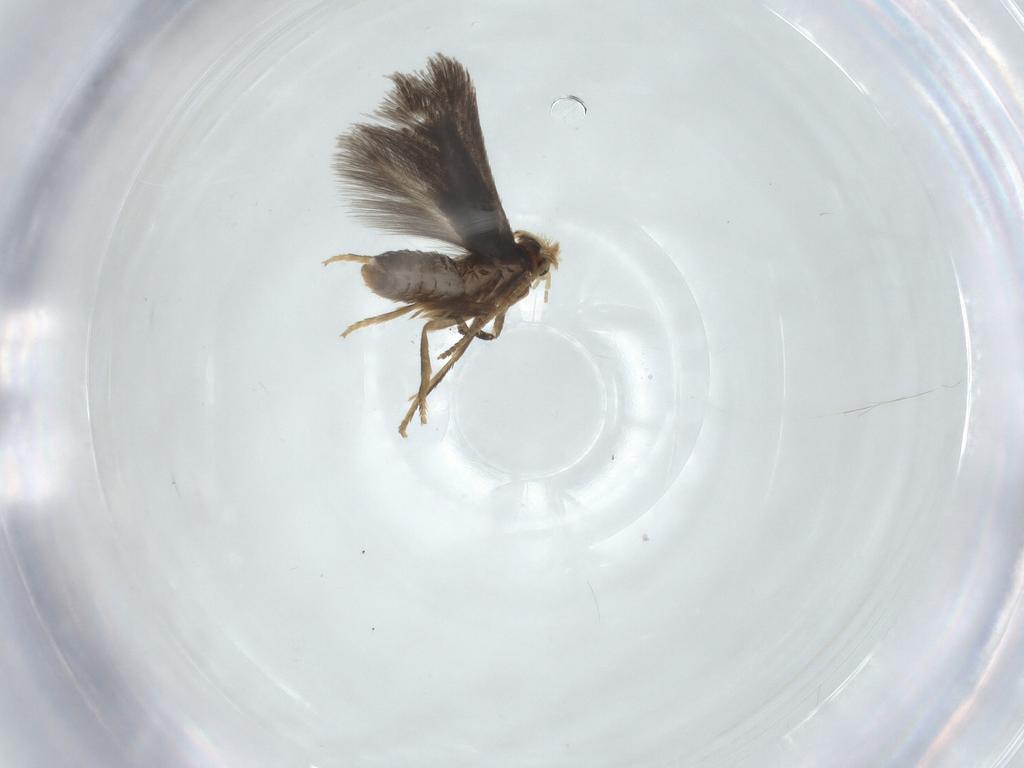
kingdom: Animalia
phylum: Arthropoda
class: Insecta
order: Lepidoptera
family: Nepticulidae
